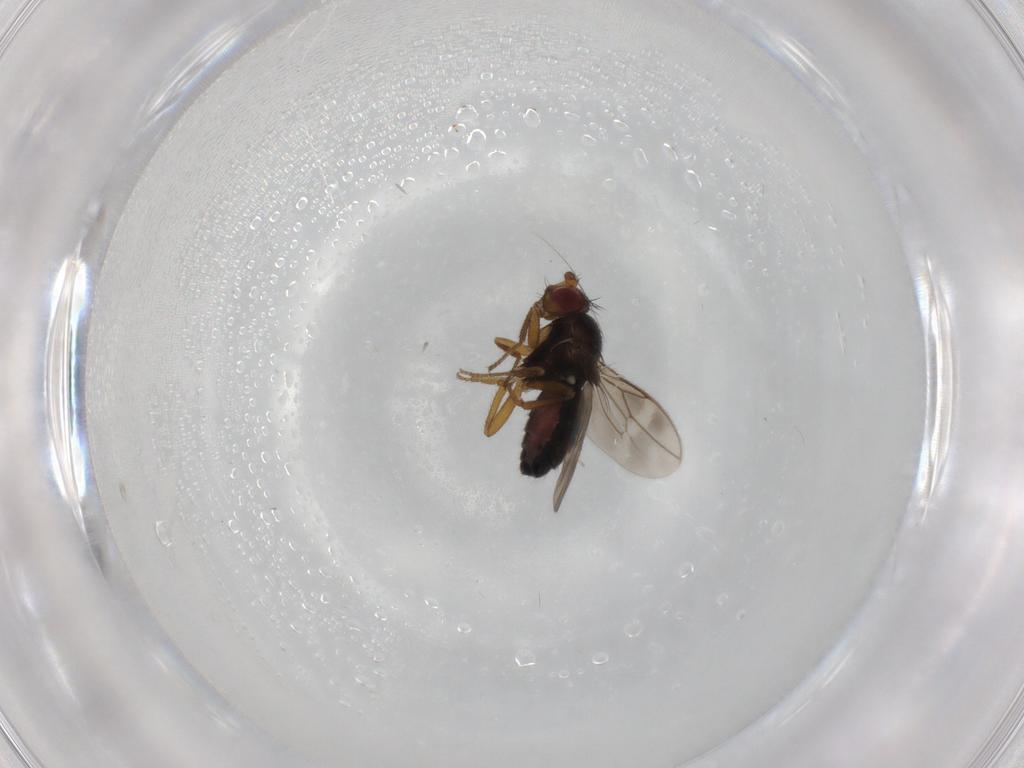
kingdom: Animalia
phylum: Arthropoda
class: Insecta
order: Diptera
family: Sphaeroceridae
